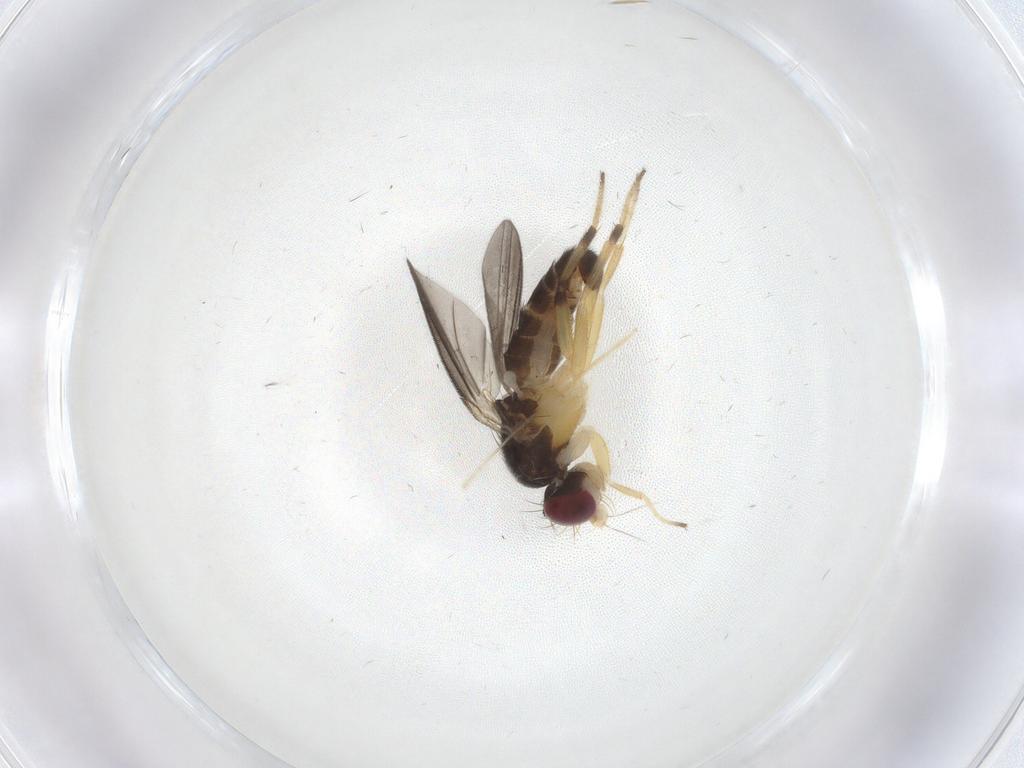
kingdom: Animalia
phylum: Arthropoda
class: Insecta
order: Diptera
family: Clusiidae
